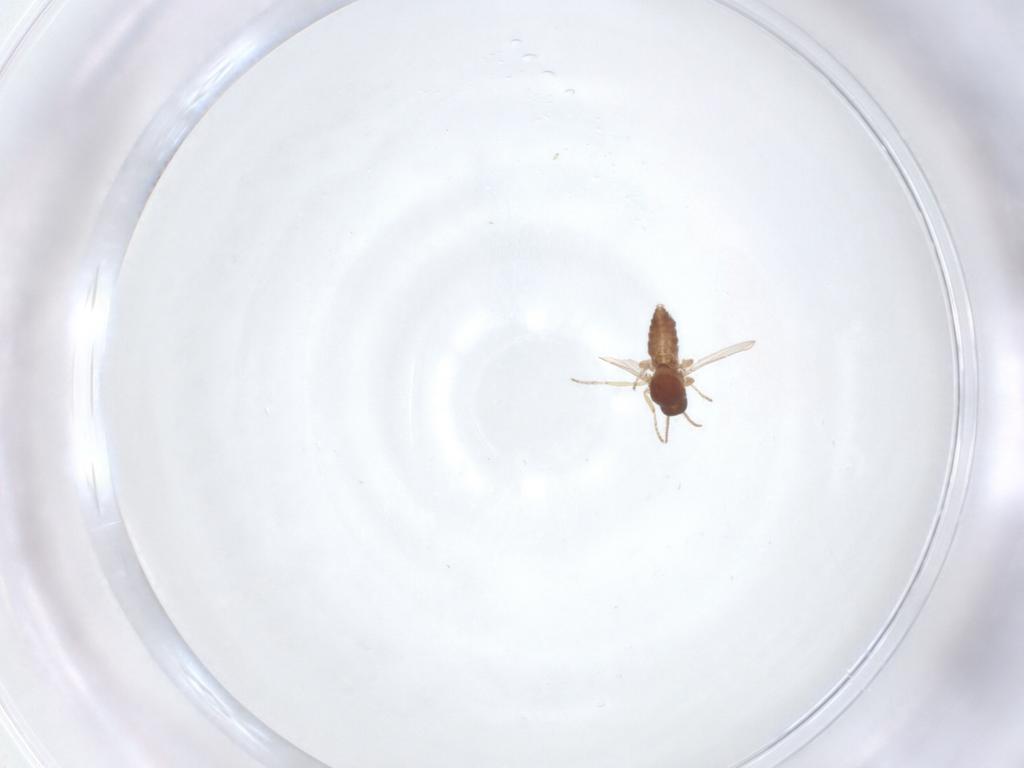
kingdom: Animalia
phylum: Arthropoda
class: Insecta
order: Diptera
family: Ceratopogonidae
